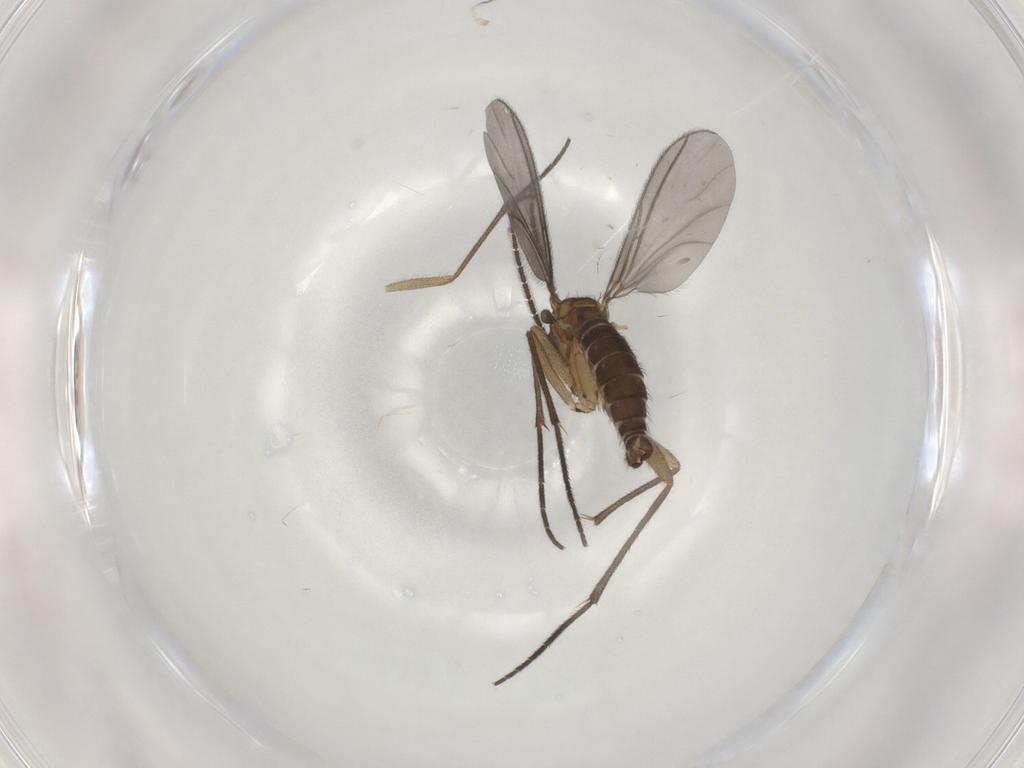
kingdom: Animalia
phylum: Arthropoda
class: Insecta
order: Diptera
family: Sciaridae
